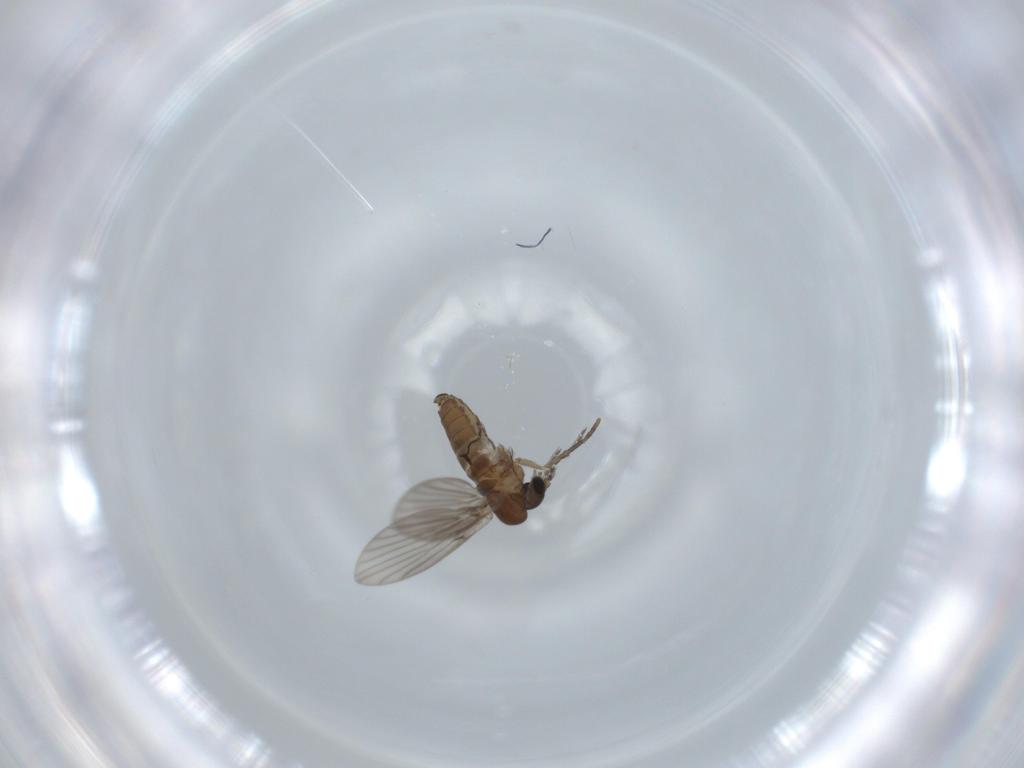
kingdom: Animalia
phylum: Arthropoda
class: Insecta
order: Diptera
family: Psychodidae
